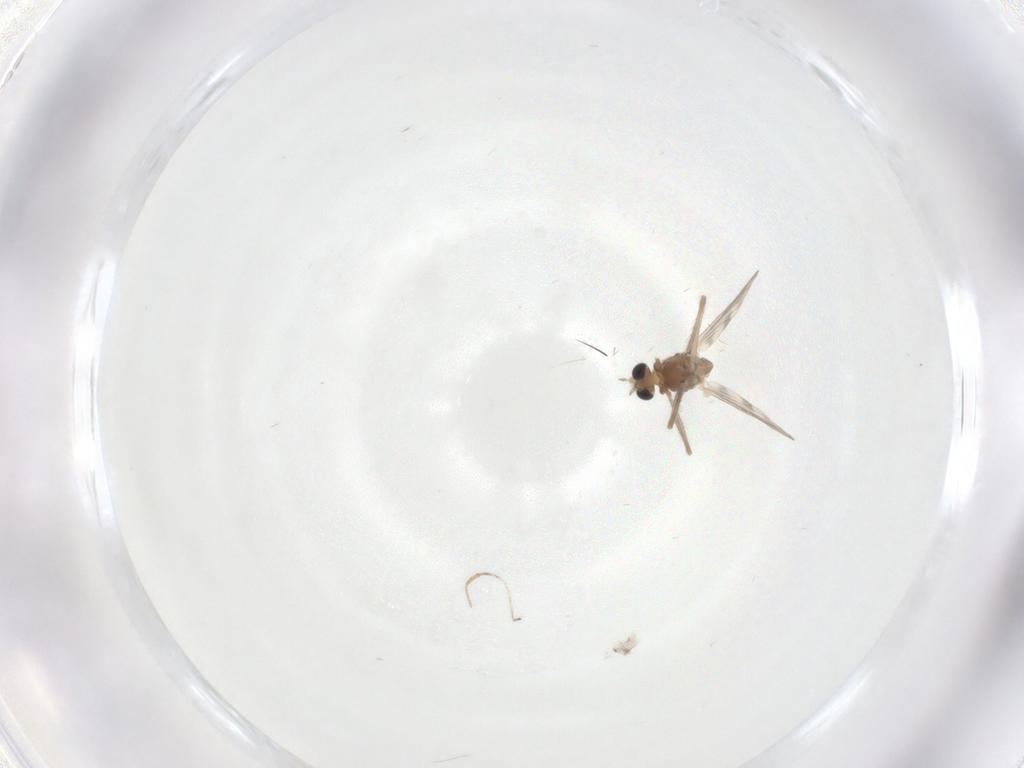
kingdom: Animalia
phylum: Arthropoda
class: Insecta
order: Diptera
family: Chironomidae
